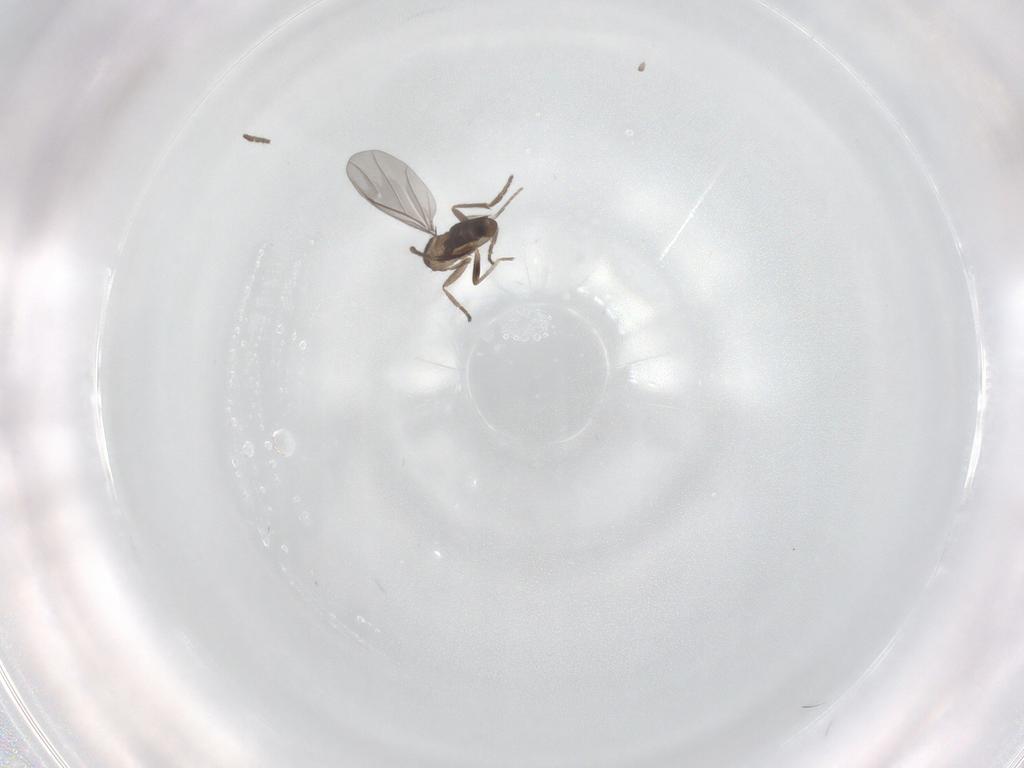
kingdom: Animalia
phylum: Arthropoda
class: Insecta
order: Diptera
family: Phoridae
